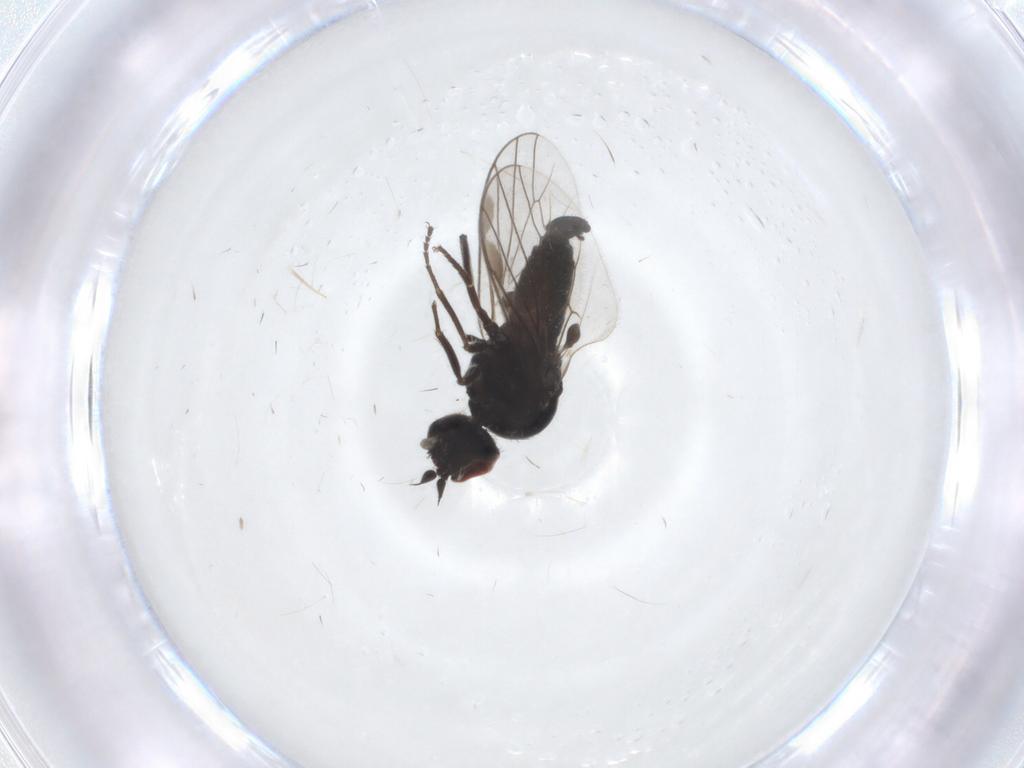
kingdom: Animalia
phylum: Arthropoda
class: Insecta
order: Diptera
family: Hybotidae
